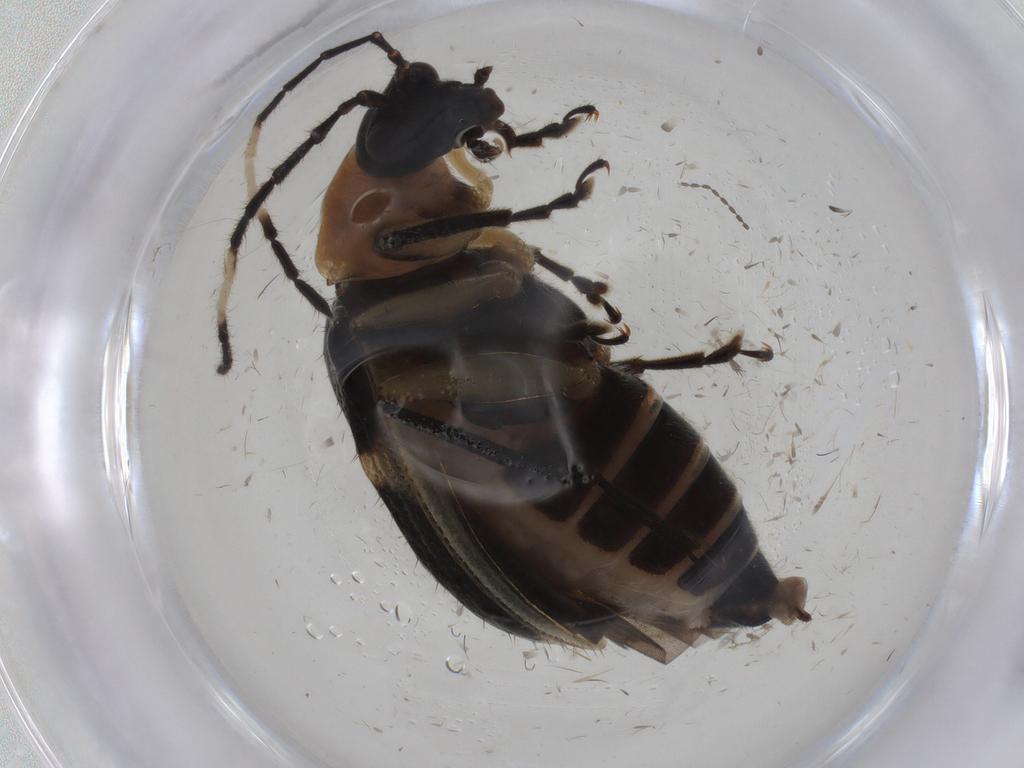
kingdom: Animalia
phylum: Arthropoda
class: Insecta
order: Coleoptera
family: Chrysomelidae
